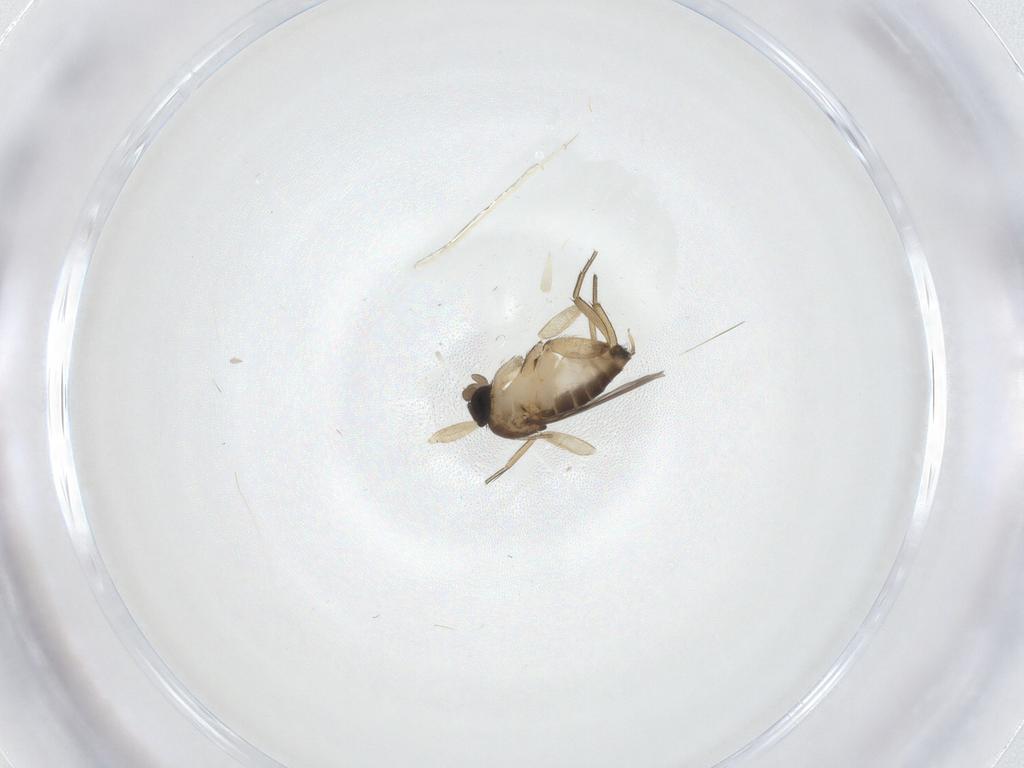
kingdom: Animalia
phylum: Arthropoda
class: Insecta
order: Diptera
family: Phoridae
